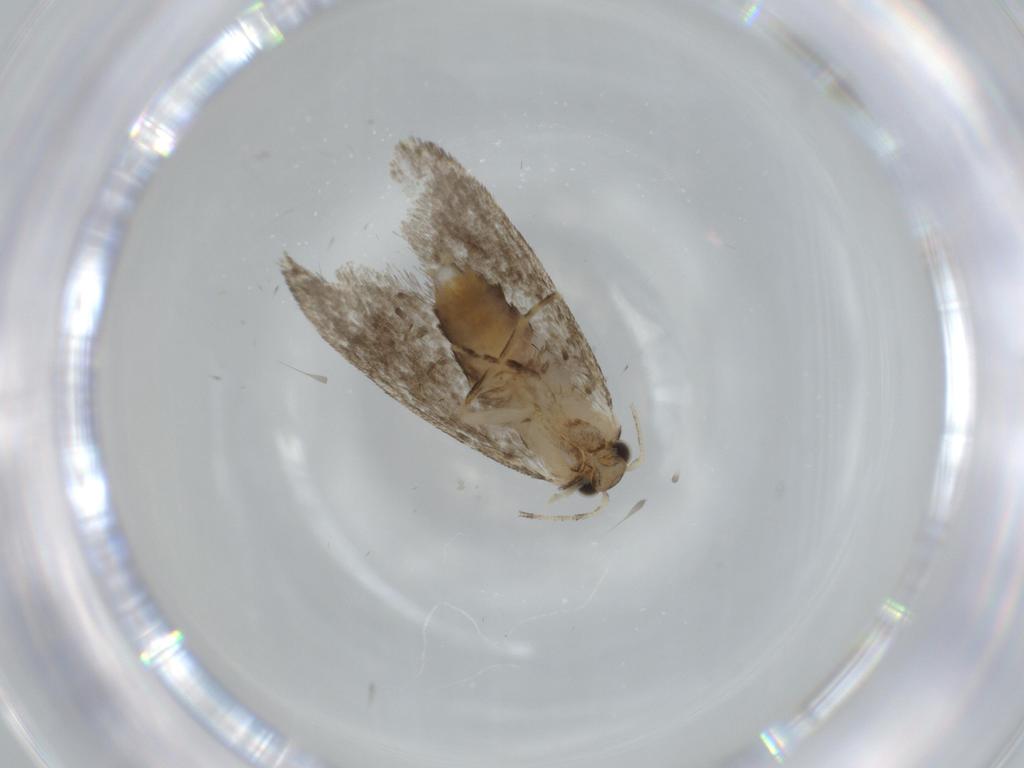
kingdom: Animalia
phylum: Arthropoda
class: Insecta
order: Lepidoptera
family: Tineidae
